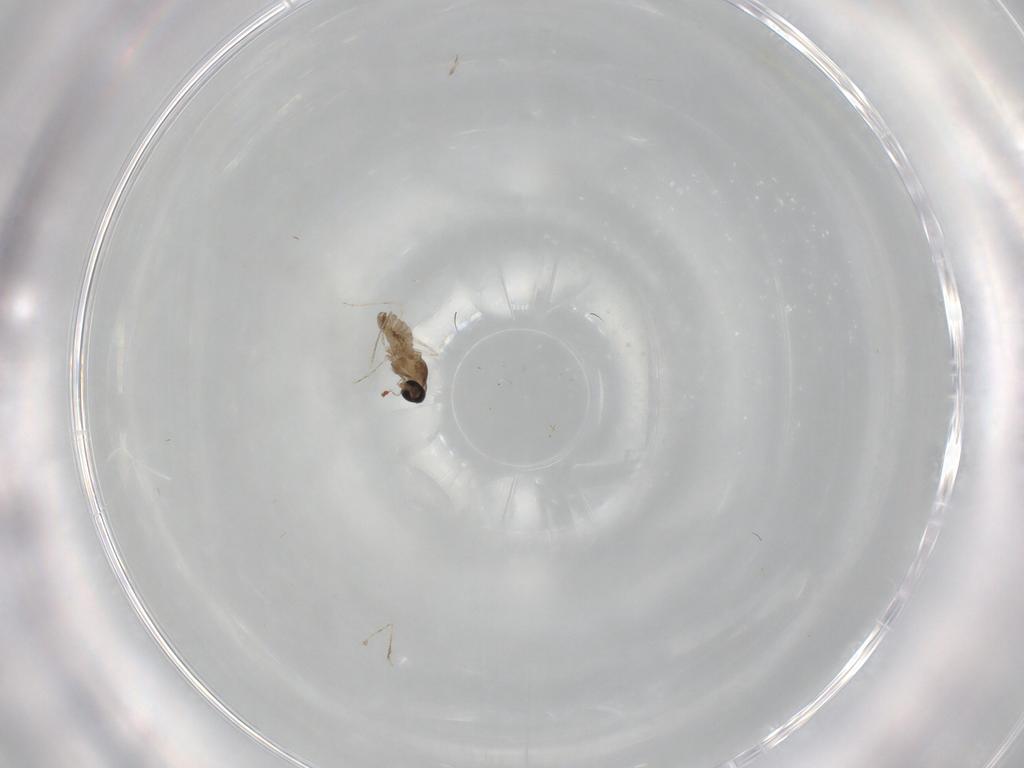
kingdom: Animalia
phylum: Arthropoda
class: Insecta
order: Diptera
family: Cecidomyiidae
